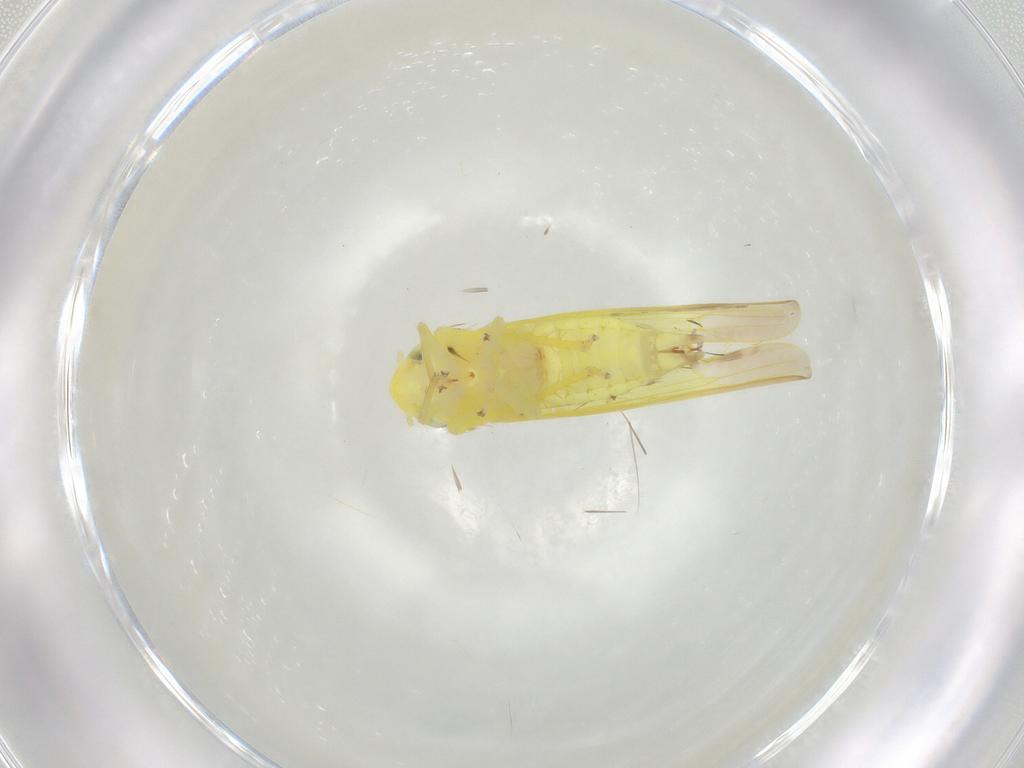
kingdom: Animalia
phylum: Arthropoda
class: Insecta
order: Hemiptera
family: Cicadellidae
